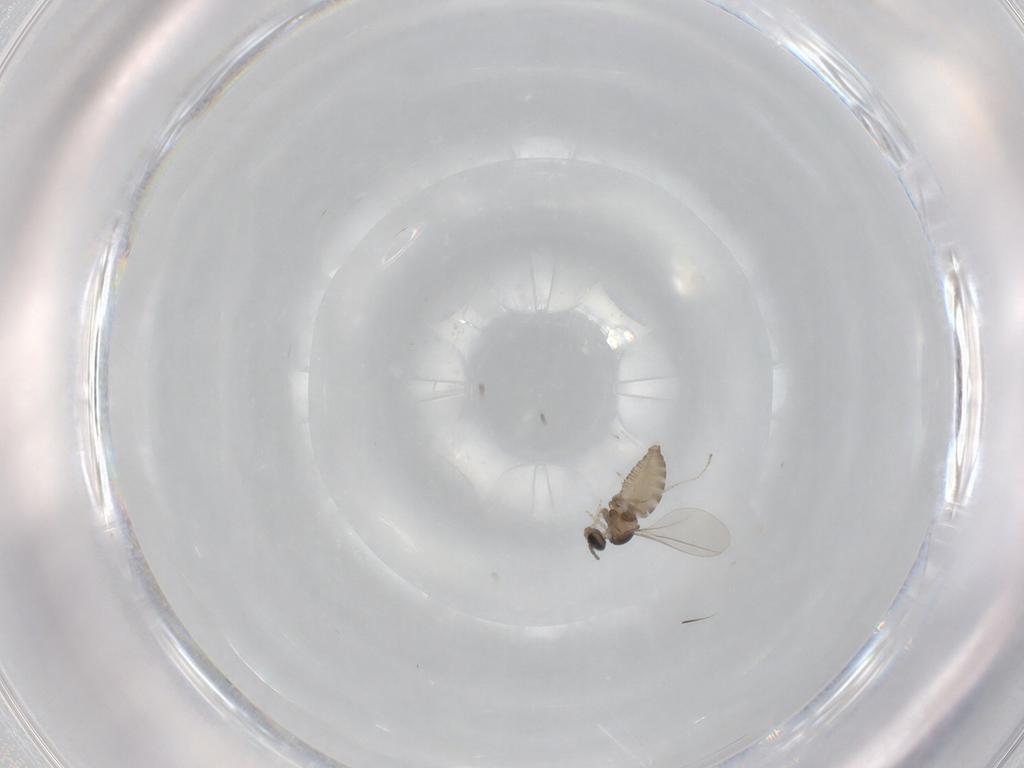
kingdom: Animalia
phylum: Arthropoda
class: Insecta
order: Diptera
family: Cecidomyiidae
